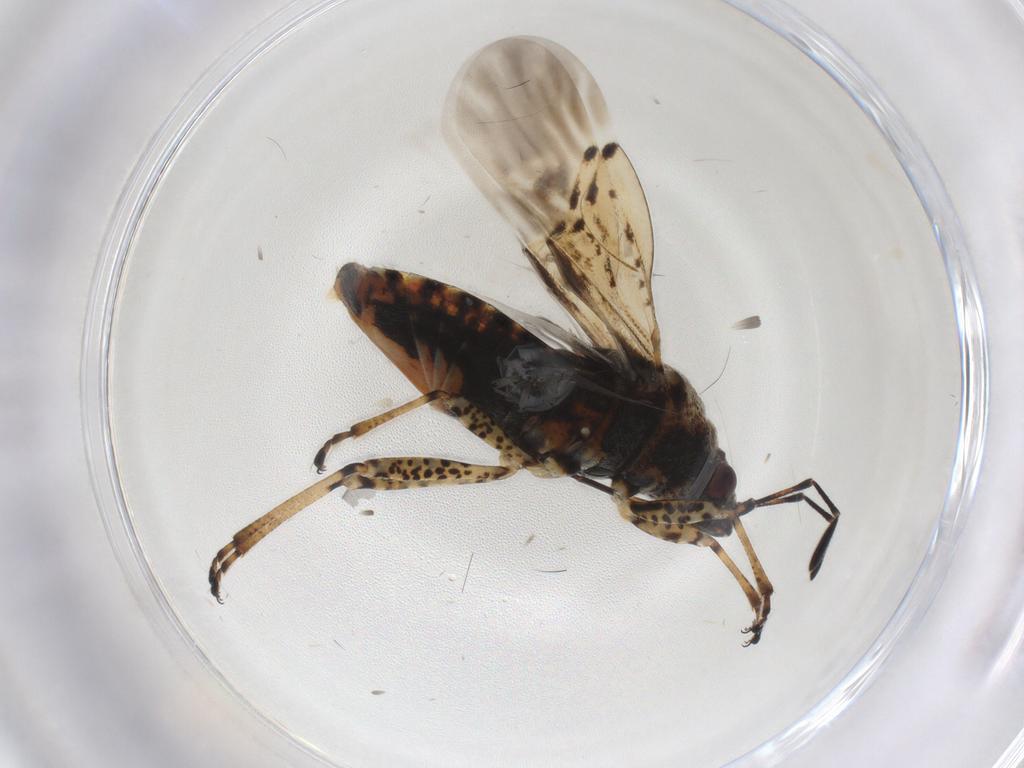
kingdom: Animalia
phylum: Arthropoda
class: Insecta
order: Hemiptera
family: Lygaeidae
